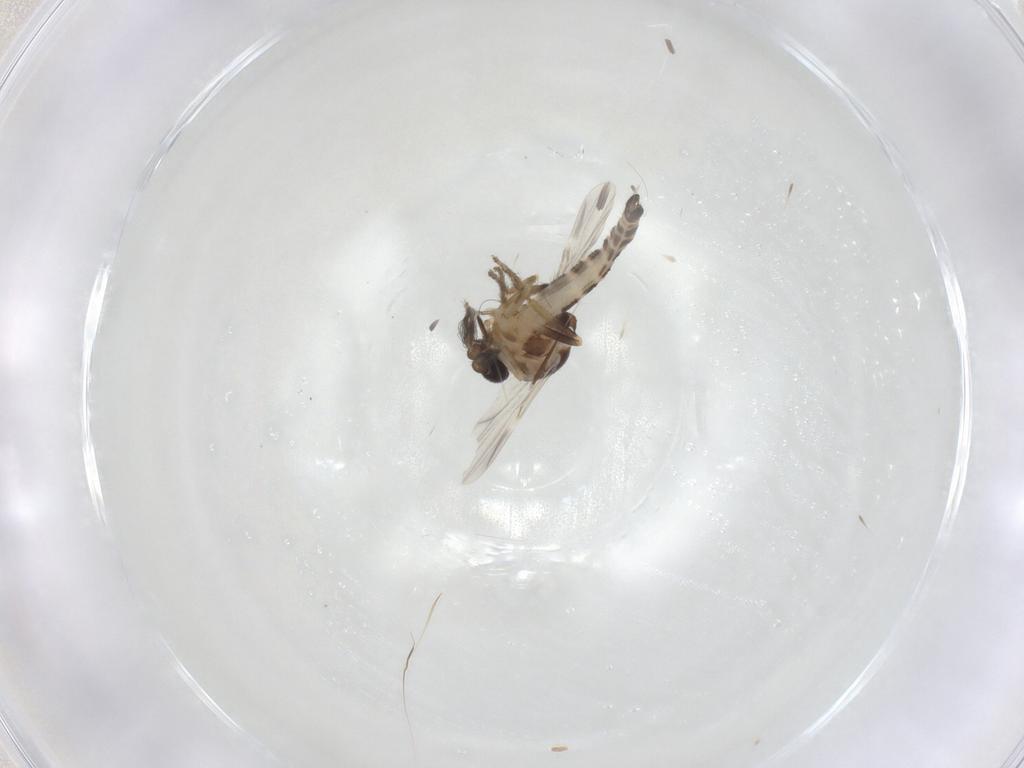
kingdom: Animalia
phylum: Arthropoda
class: Insecta
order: Diptera
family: Ceratopogonidae
